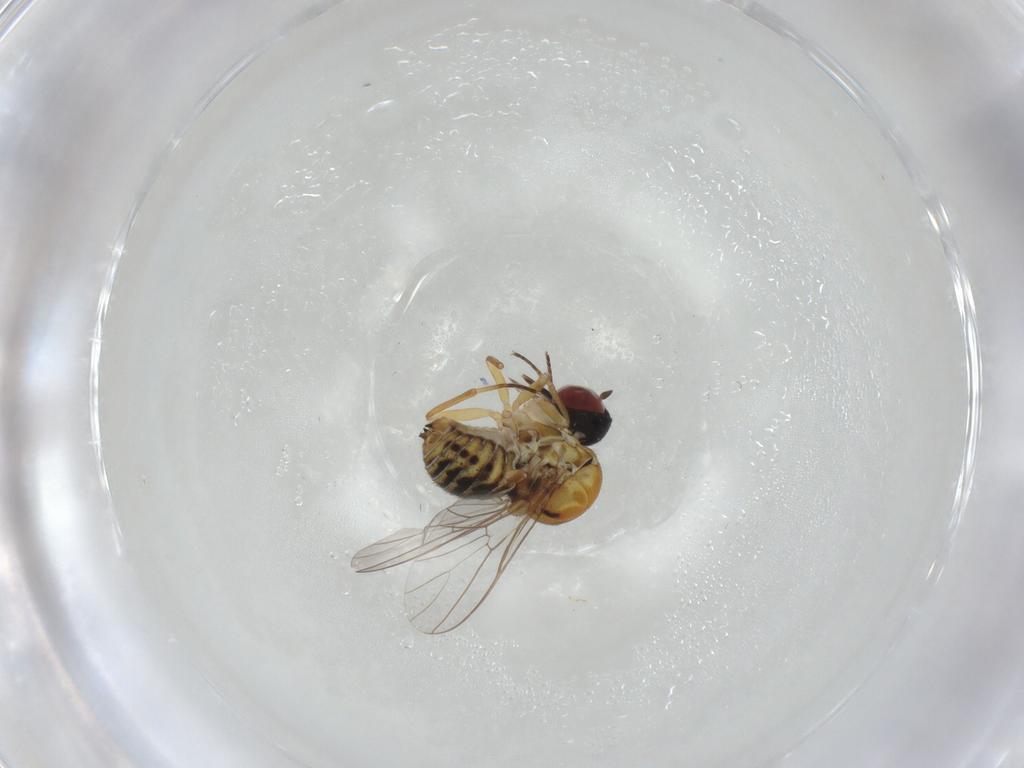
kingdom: Animalia
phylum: Arthropoda
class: Insecta
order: Diptera
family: Bombyliidae
